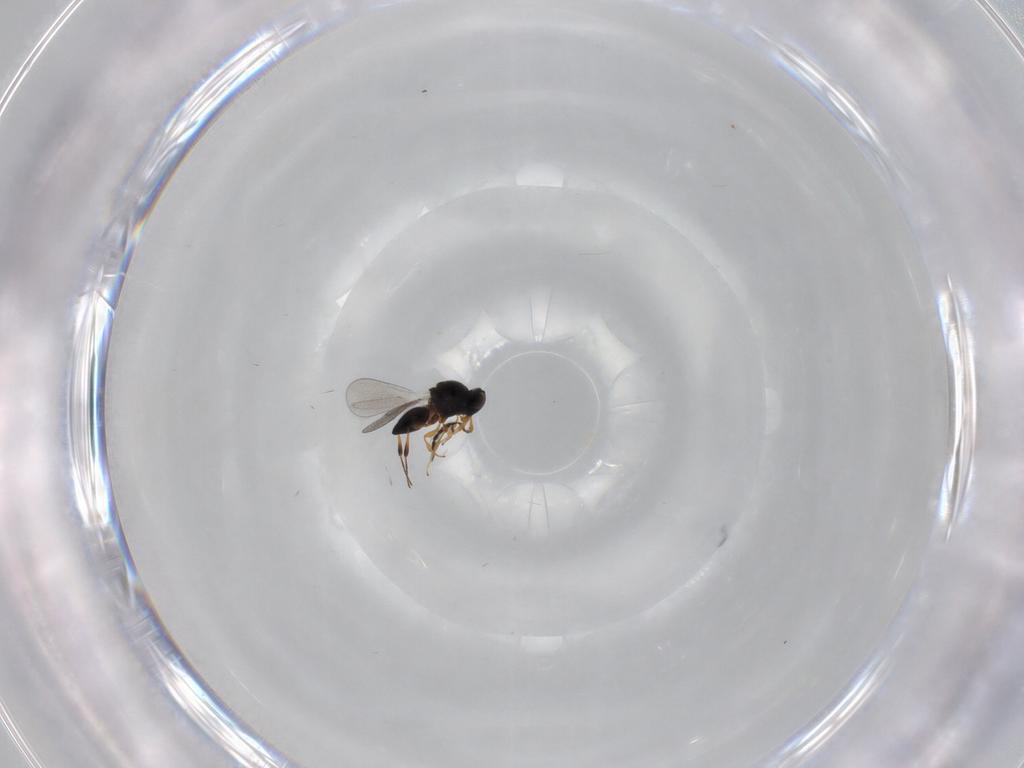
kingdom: Animalia
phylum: Arthropoda
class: Insecta
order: Hymenoptera
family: Platygastridae
